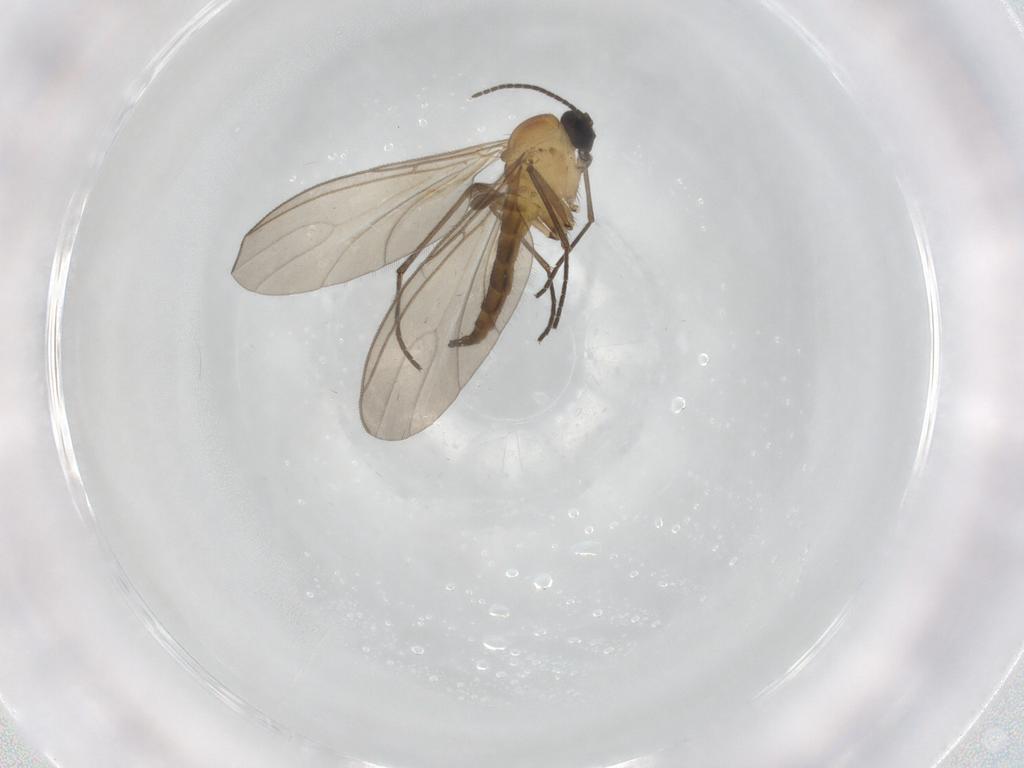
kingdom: Animalia
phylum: Arthropoda
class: Insecta
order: Diptera
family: Sciaridae
